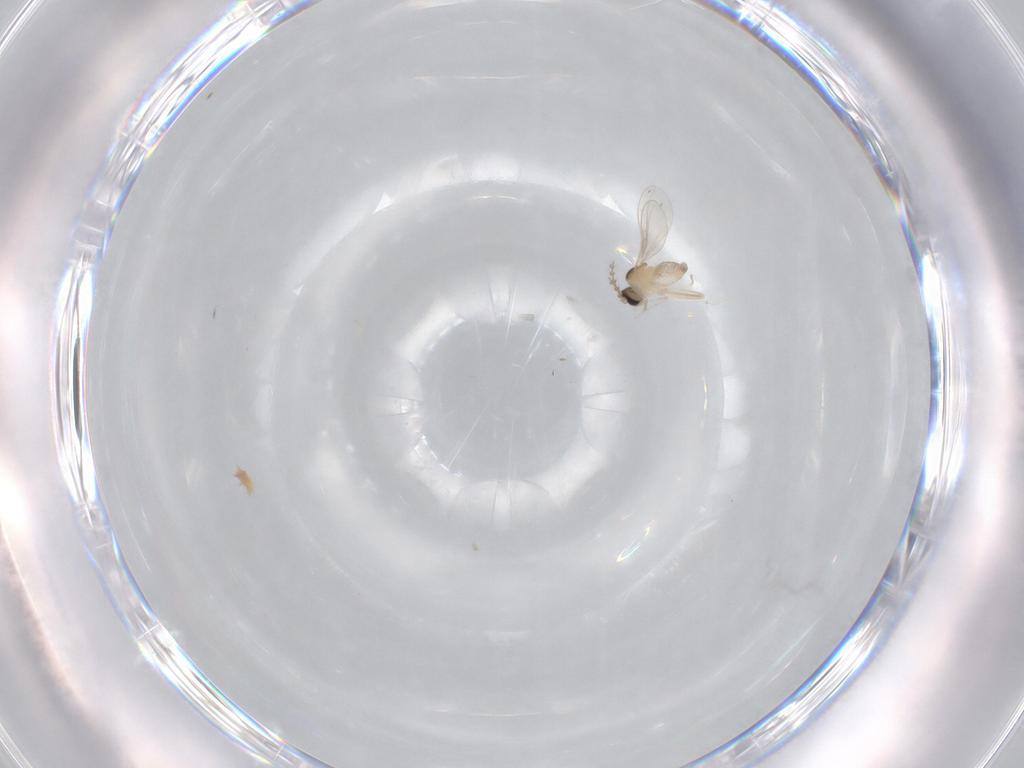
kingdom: Animalia
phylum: Arthropoda
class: Insecta
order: Diptera
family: Cecidomyiidae
